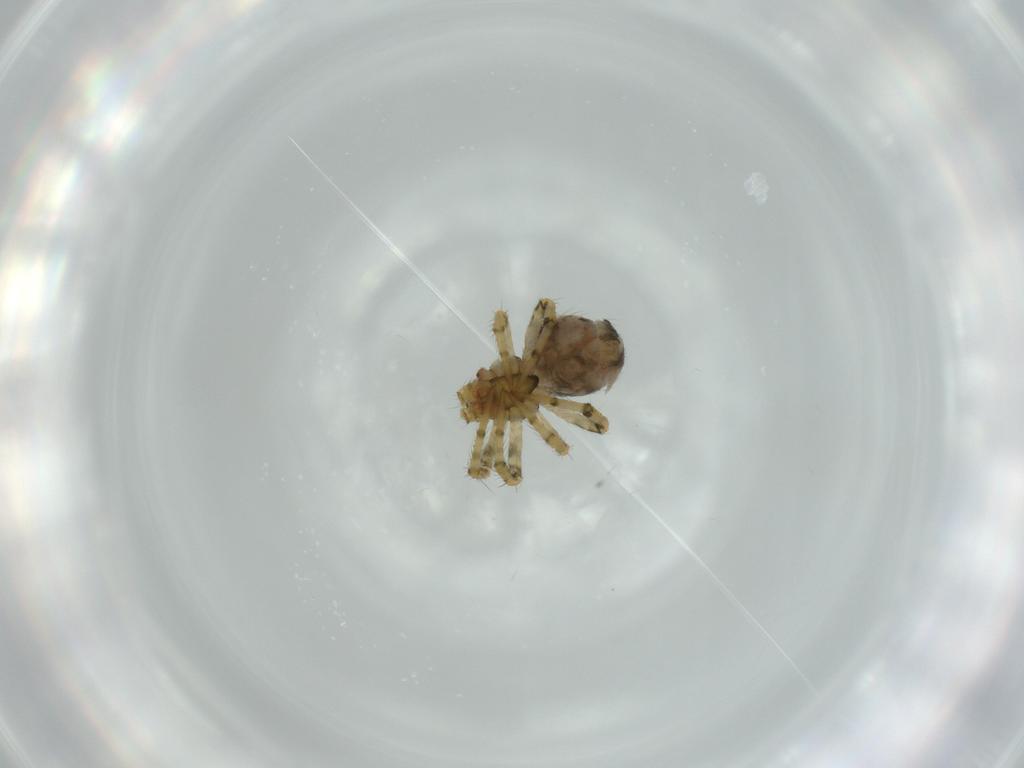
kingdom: Animalia
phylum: Arthropoda
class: Arachnida
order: Araneae
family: Theridiidae
